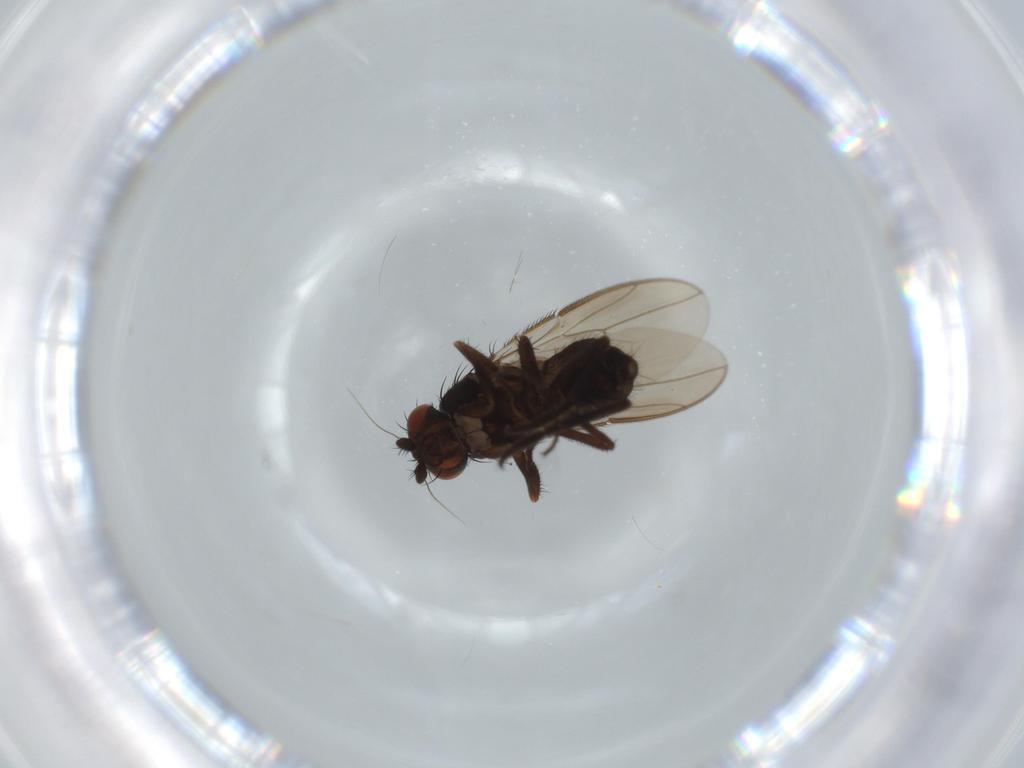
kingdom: Animalia
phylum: Arthropoda
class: Insecta
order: Diptera
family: Sphaeroceridae
